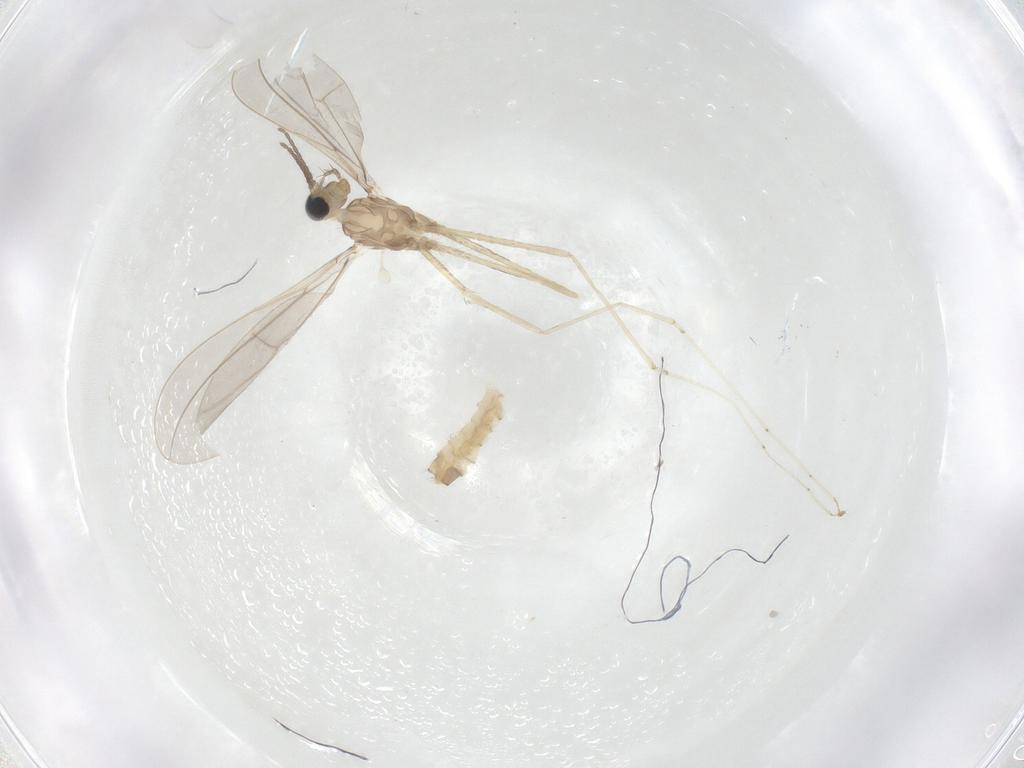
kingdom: Animalia
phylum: Arthropoda
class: Insecta
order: Diptera
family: Cecidomyiidae
